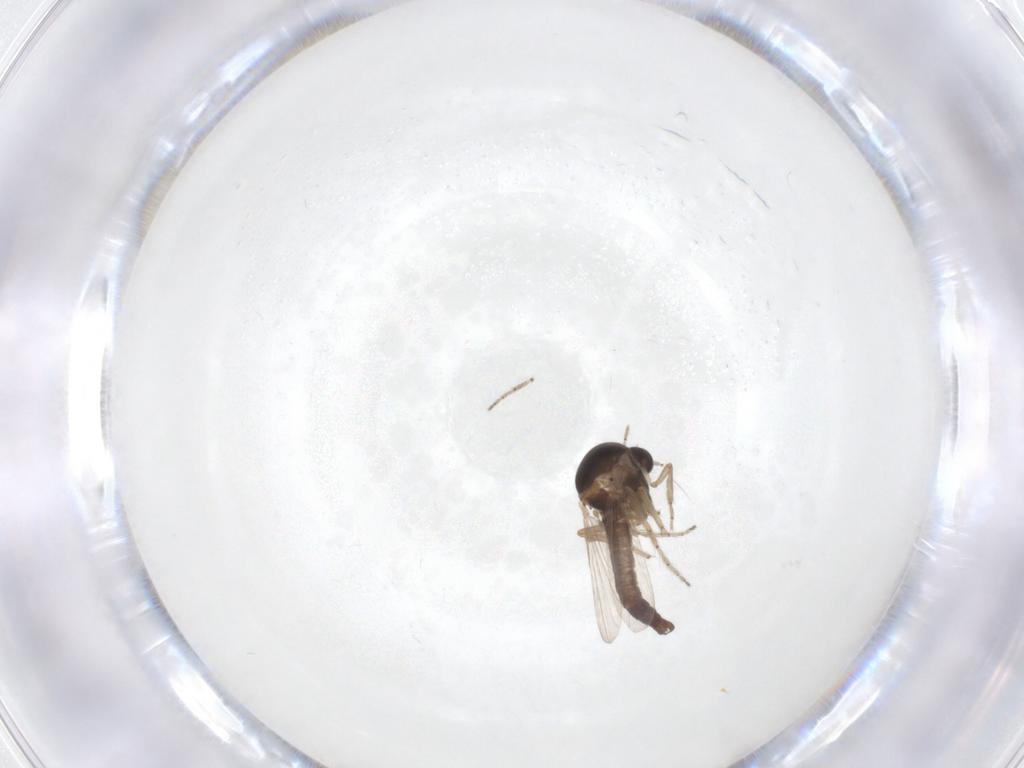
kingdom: Animalia
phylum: Arthropoda
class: Insecta
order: Diptera
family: Ceratopogonidae
